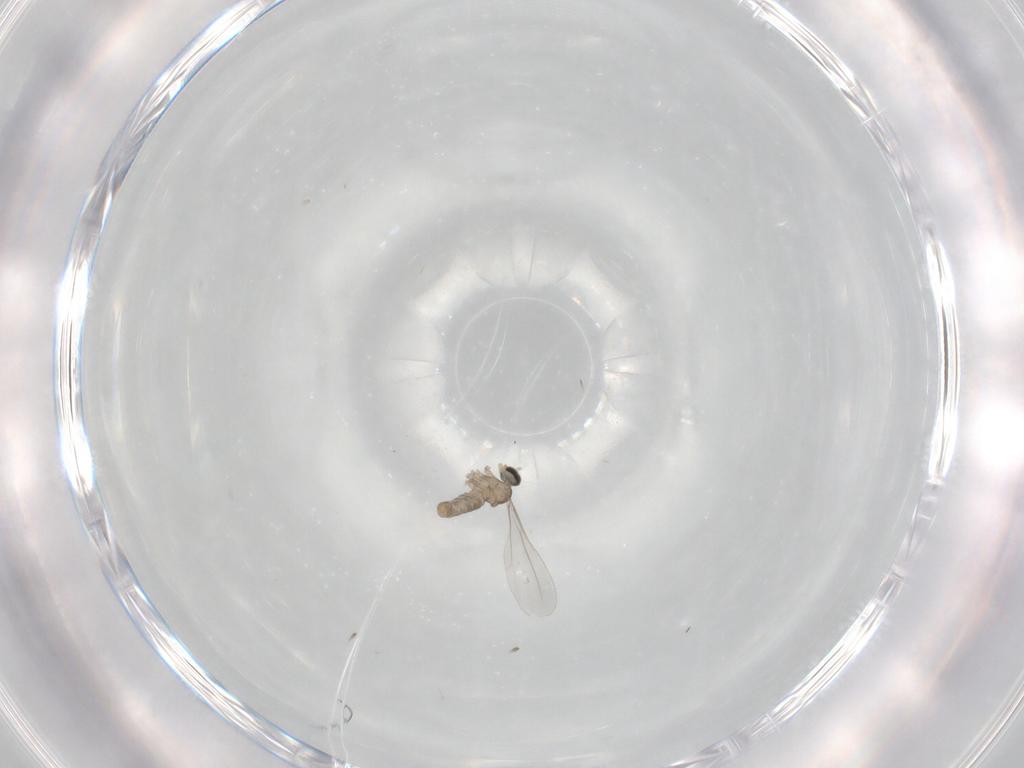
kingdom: Animalia
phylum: Arthropoda
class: Insecta
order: Diptera
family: Cecidomyiidae
